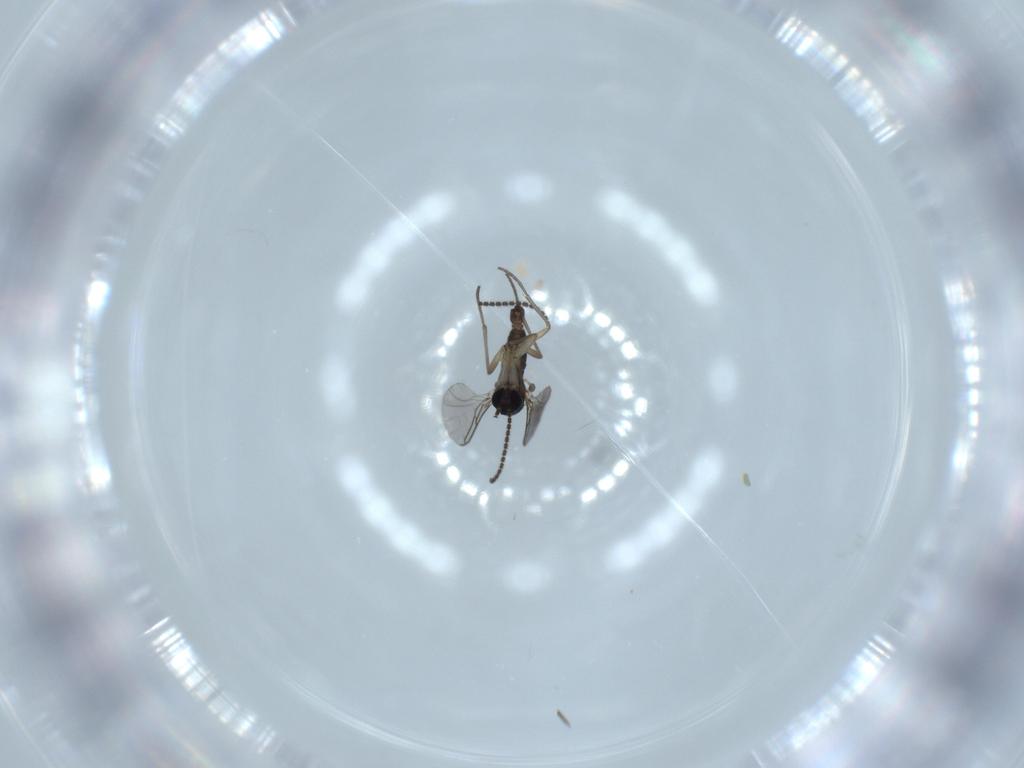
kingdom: Animalia
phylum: Arthropoda
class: Insecta
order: Diptera
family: Sciaridae
